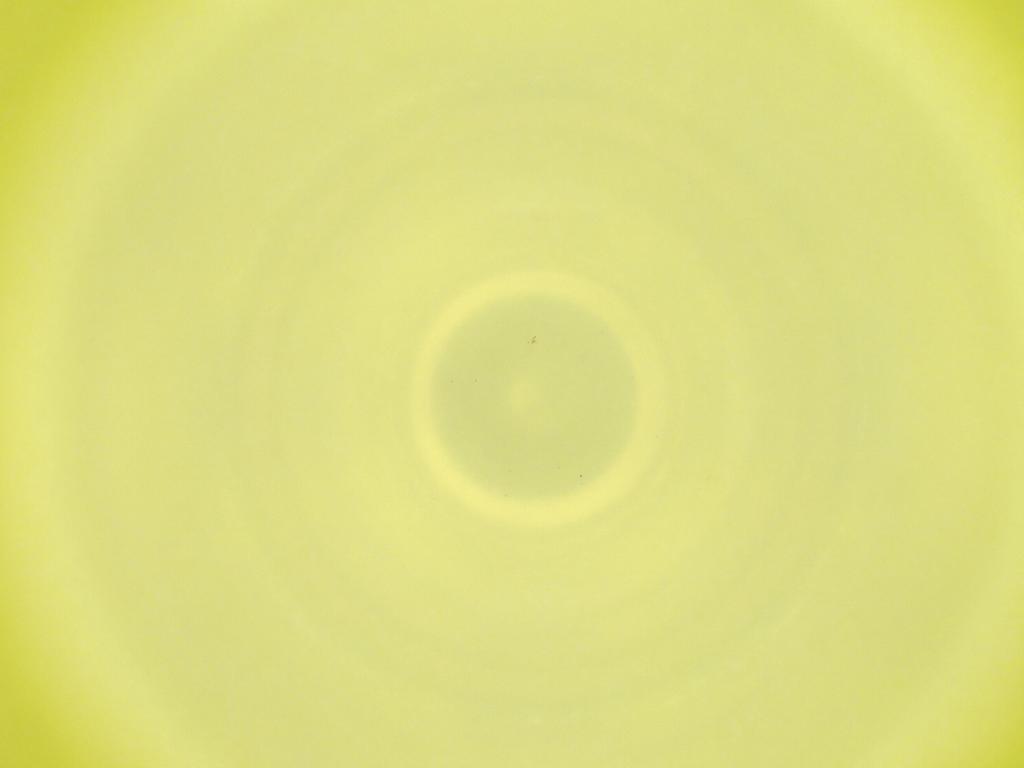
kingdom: Animalia
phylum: Arthropoda
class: Insecta
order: Diptera
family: Cecidomyiidae
